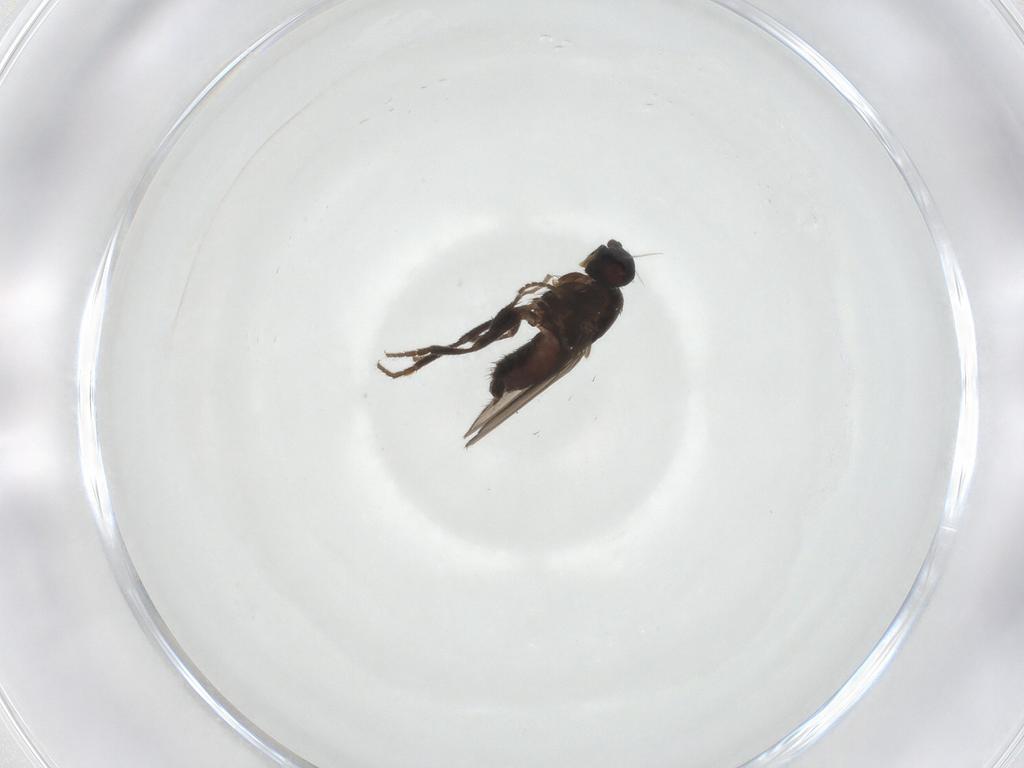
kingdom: Animalia
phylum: Arthropoda
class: Insecta
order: Diptera
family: Sphaeroceridae
